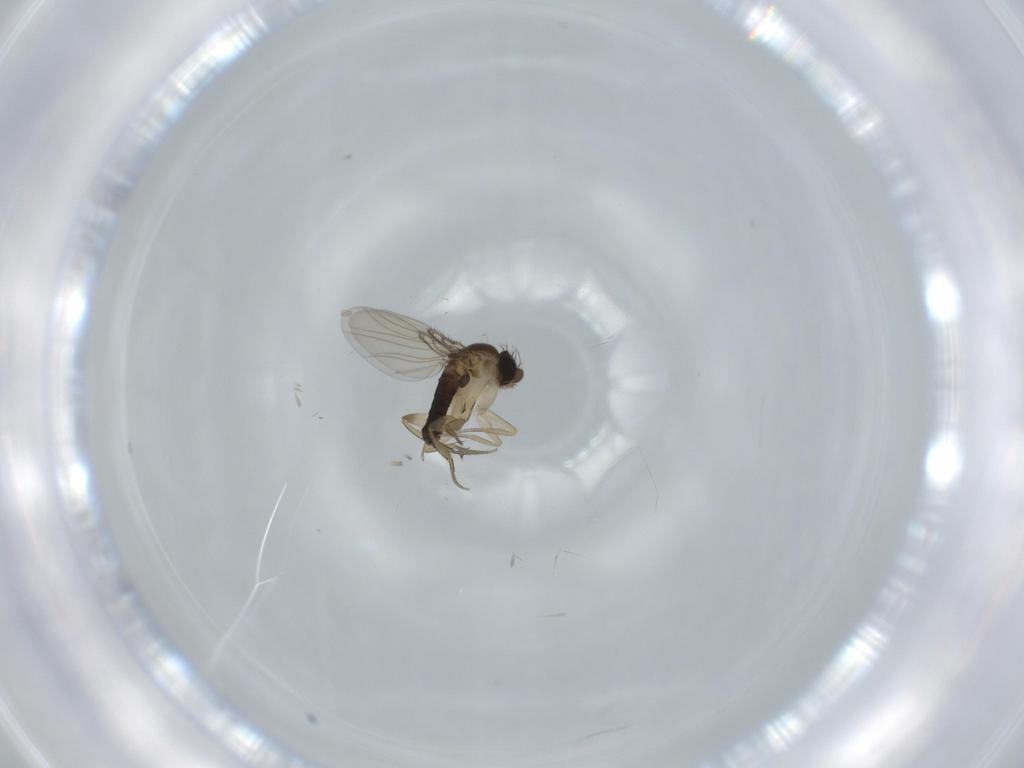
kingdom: Animalia
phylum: Arthropoda
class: Insecta
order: Diptera
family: Phoridae
